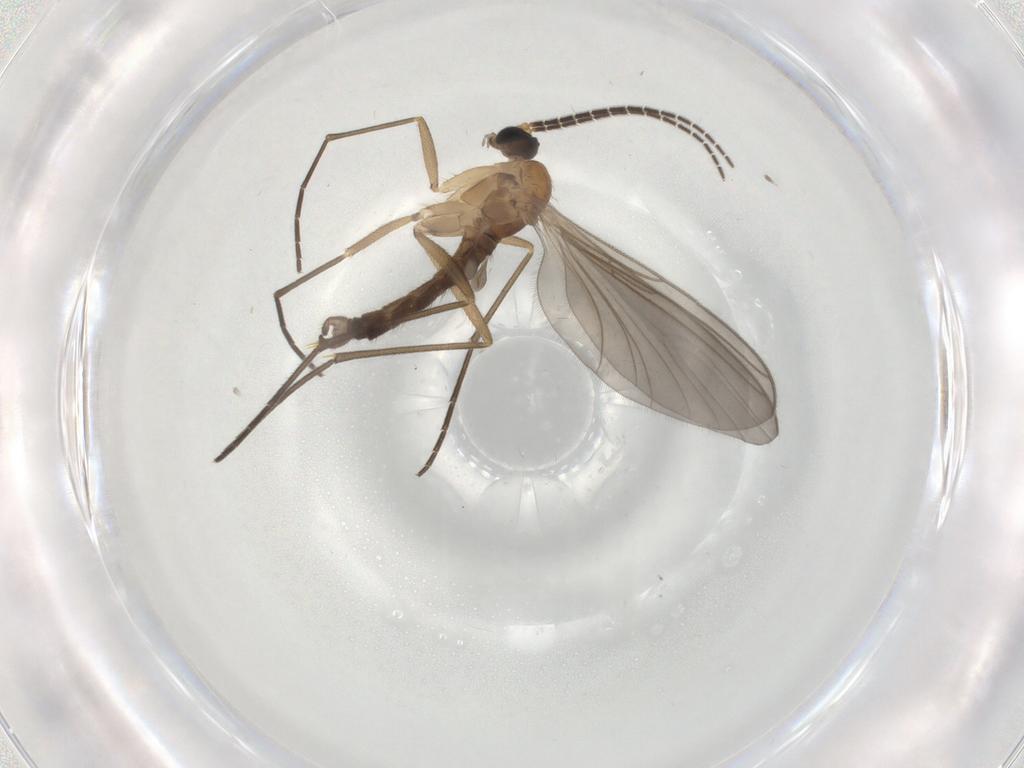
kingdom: Animalia
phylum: Arthropoda
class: Insecta
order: Diptera
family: Sciaridae
